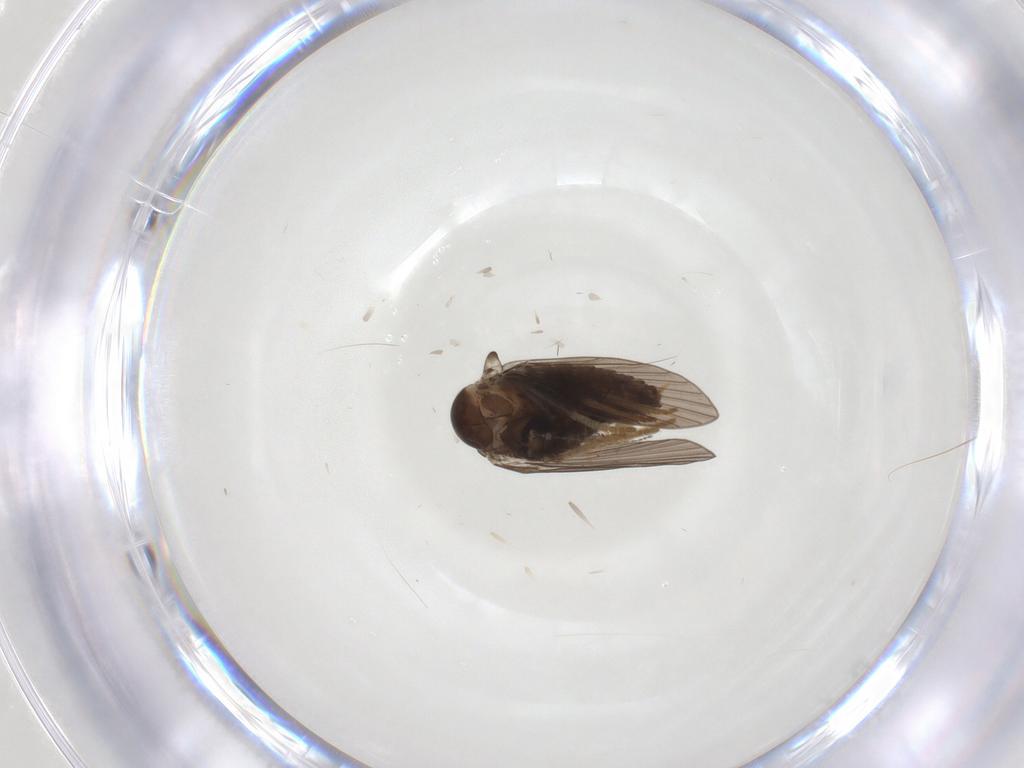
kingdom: Animalia
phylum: Arthropoda
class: Insecta
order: Diptera
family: Psychodidae
